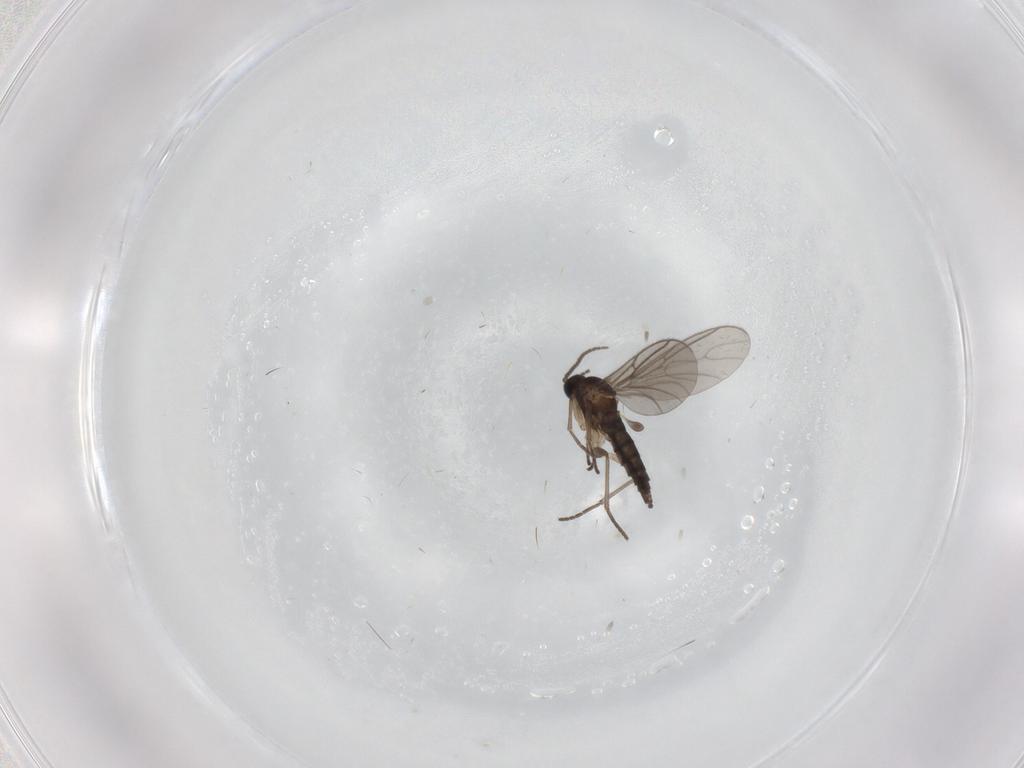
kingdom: Animalia
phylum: Arthropoda
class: Insecta
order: Diptera
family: Sciaridae
